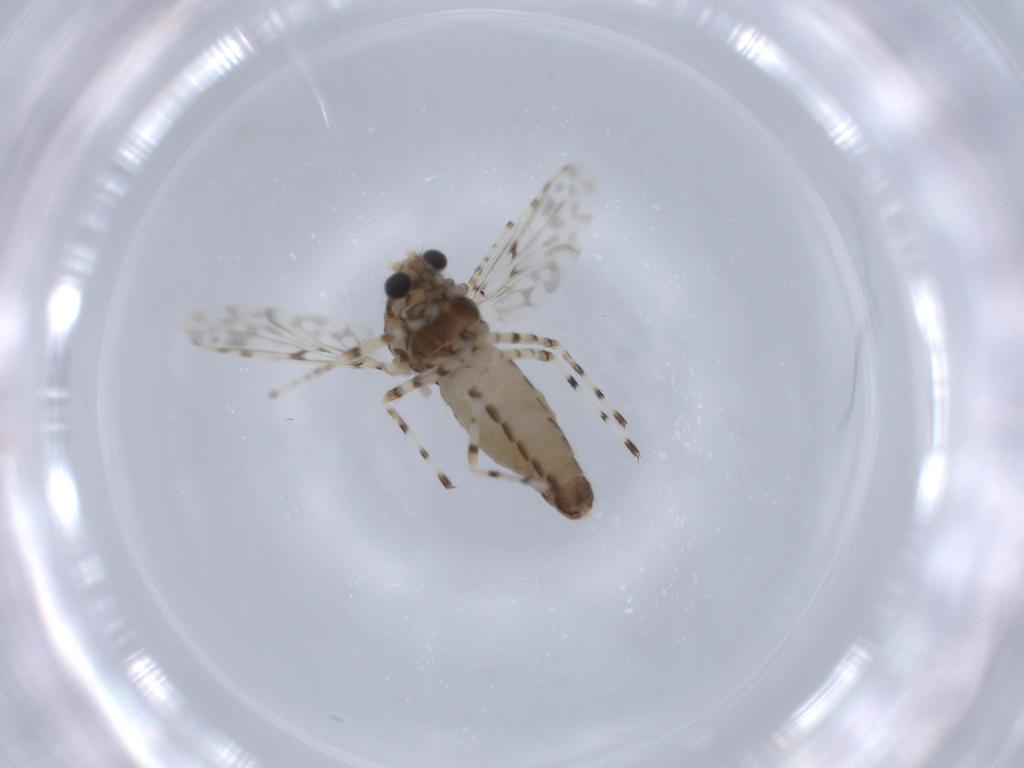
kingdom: Animalia
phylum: Arthropoda
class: Insecta
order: Diptera
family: Chironomidae
